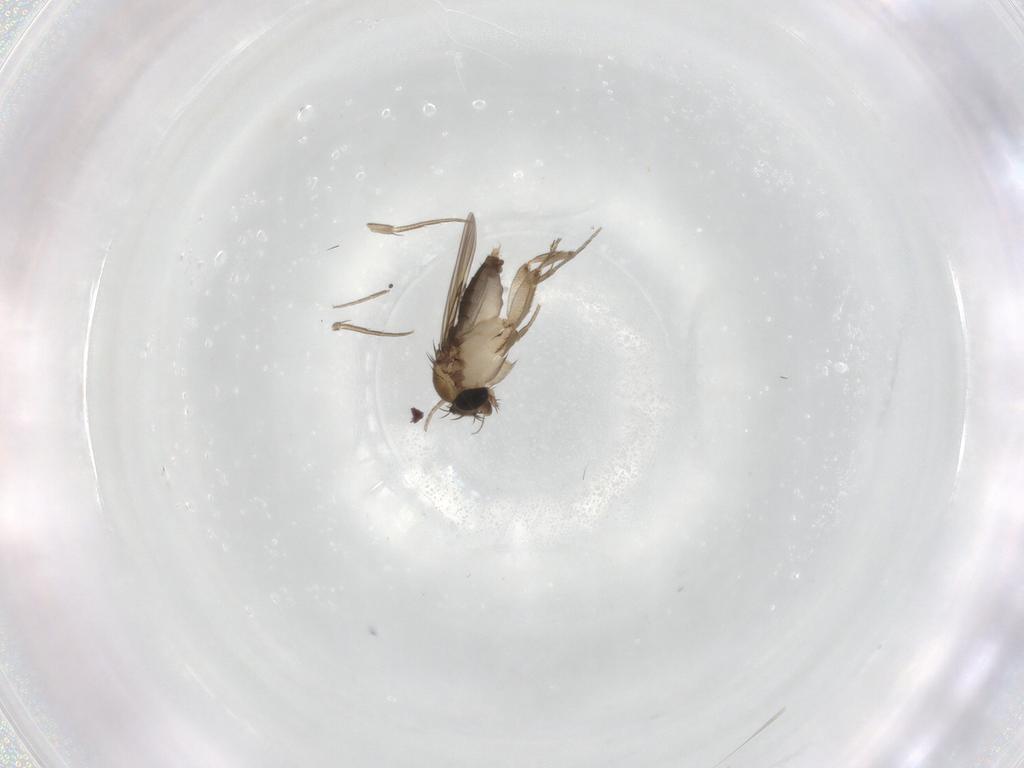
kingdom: Animalia
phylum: Arthropoda
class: Insecta
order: Diptera
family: Phoridae
